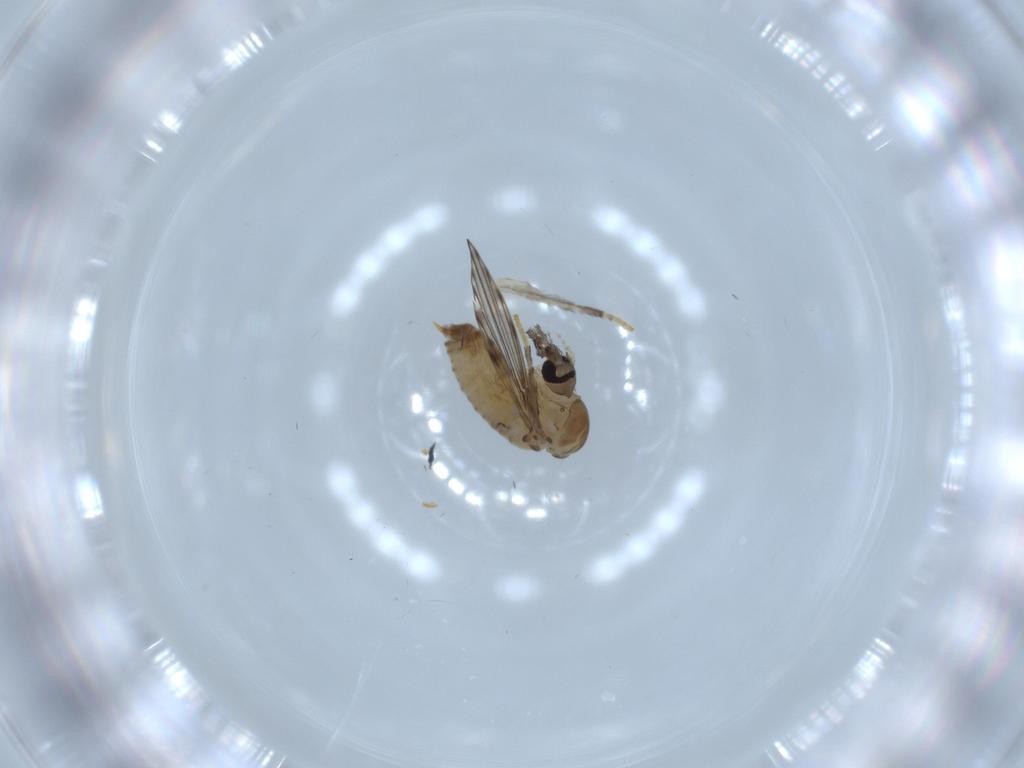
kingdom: Animalia
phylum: Arthropoda
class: Insecta
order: Diptera
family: Psychodidae
